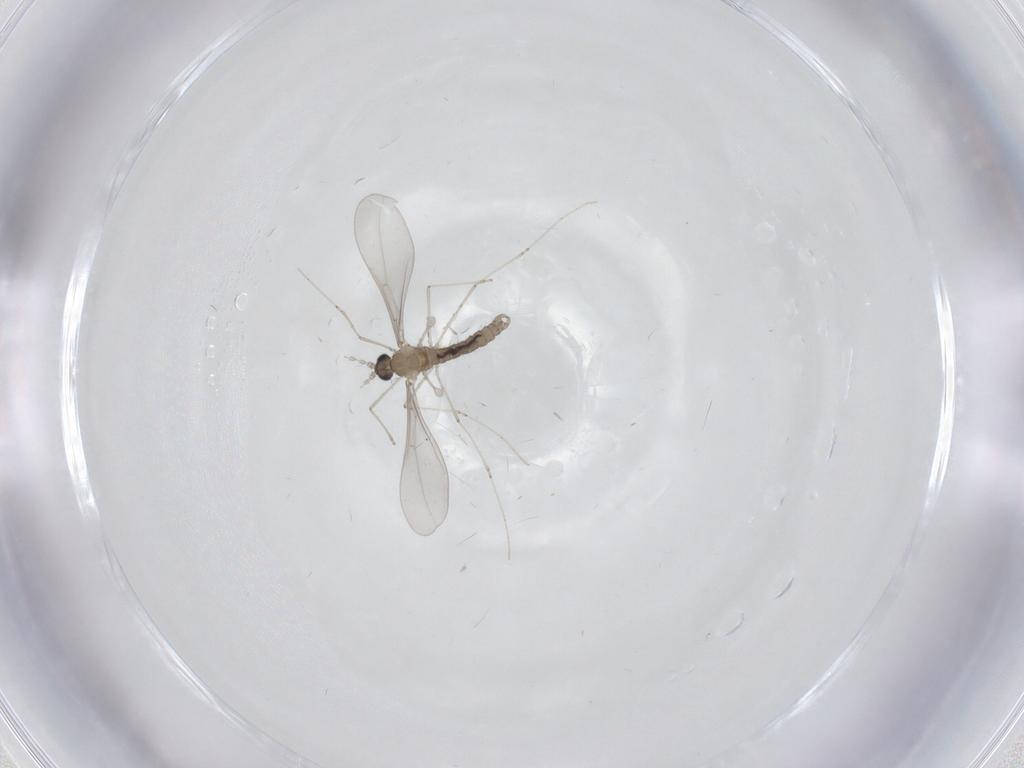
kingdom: Animalia
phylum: Arthropoda
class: Insecta
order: Diptera
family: Cecidomyiidae
